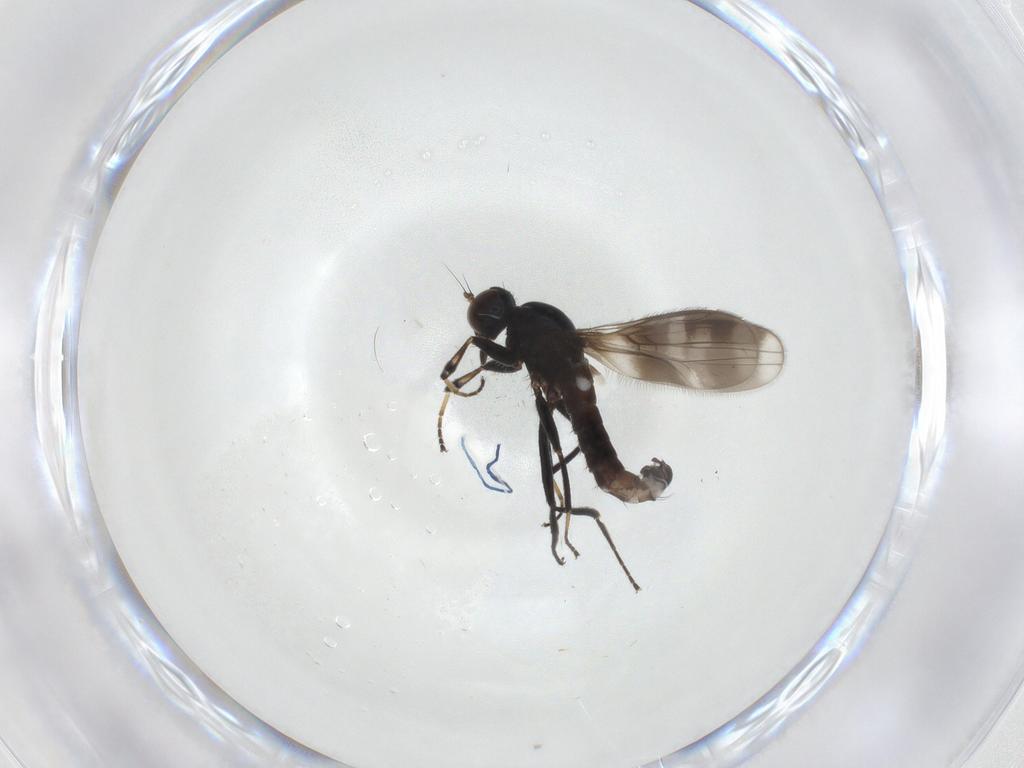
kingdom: Animalia
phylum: Arthropoda
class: Insecta
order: Diptera
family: Hybotidae
